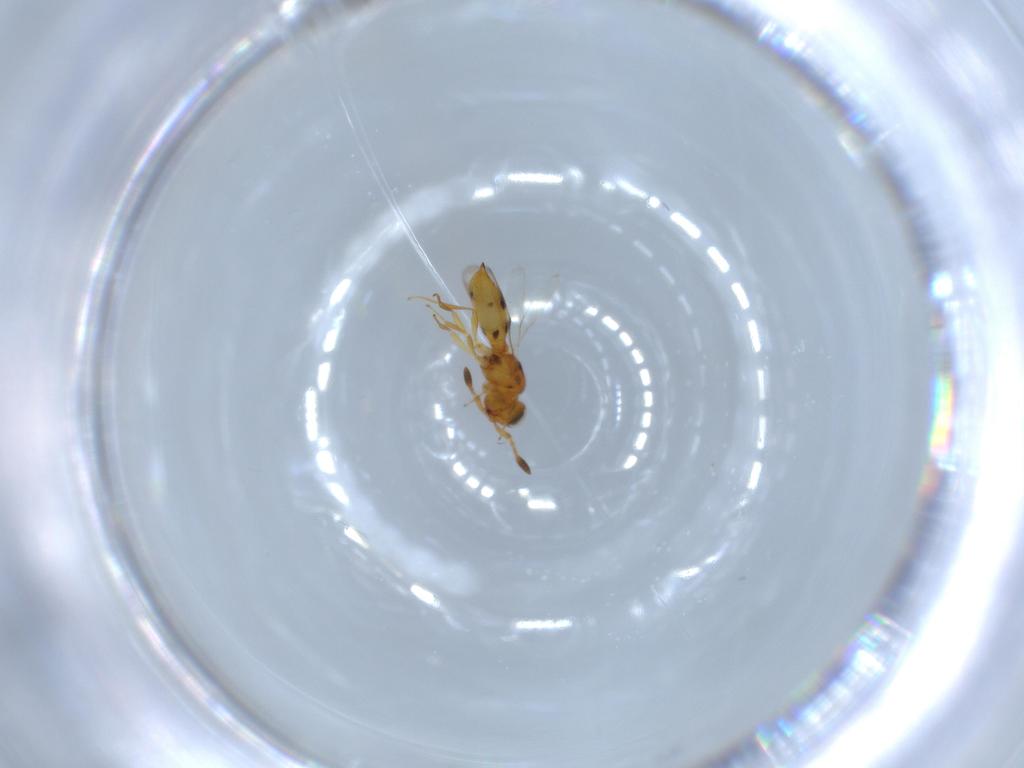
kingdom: Animalia
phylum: Arthropoda
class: Insecta
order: Hymenoptera
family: Scelionidae
